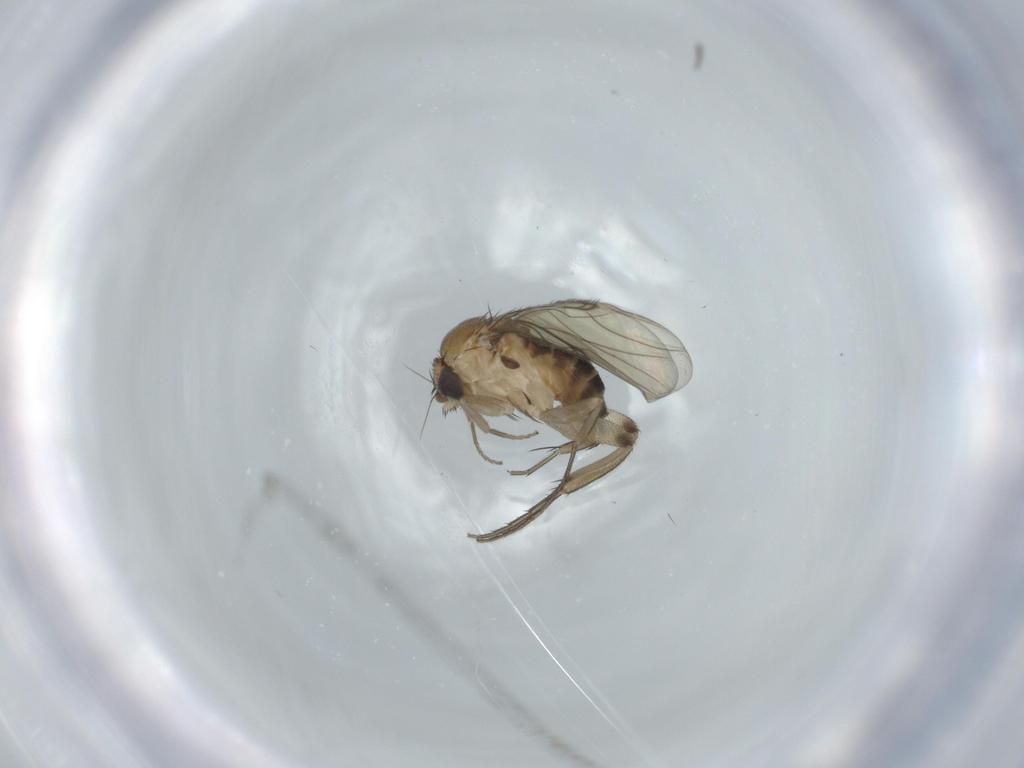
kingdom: Animalia
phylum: Arthropoda
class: Insecta
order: Diptera
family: Phoridae
